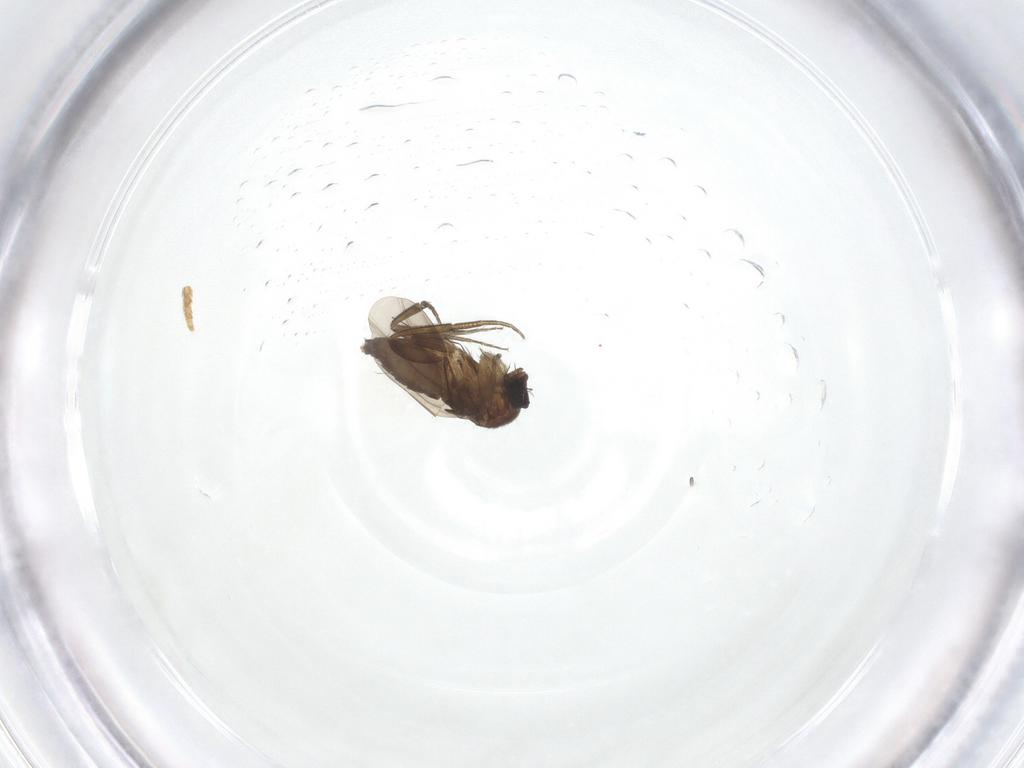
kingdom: Animalia
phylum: Arthropoda
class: Insecta
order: Diptera
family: Phoridae
